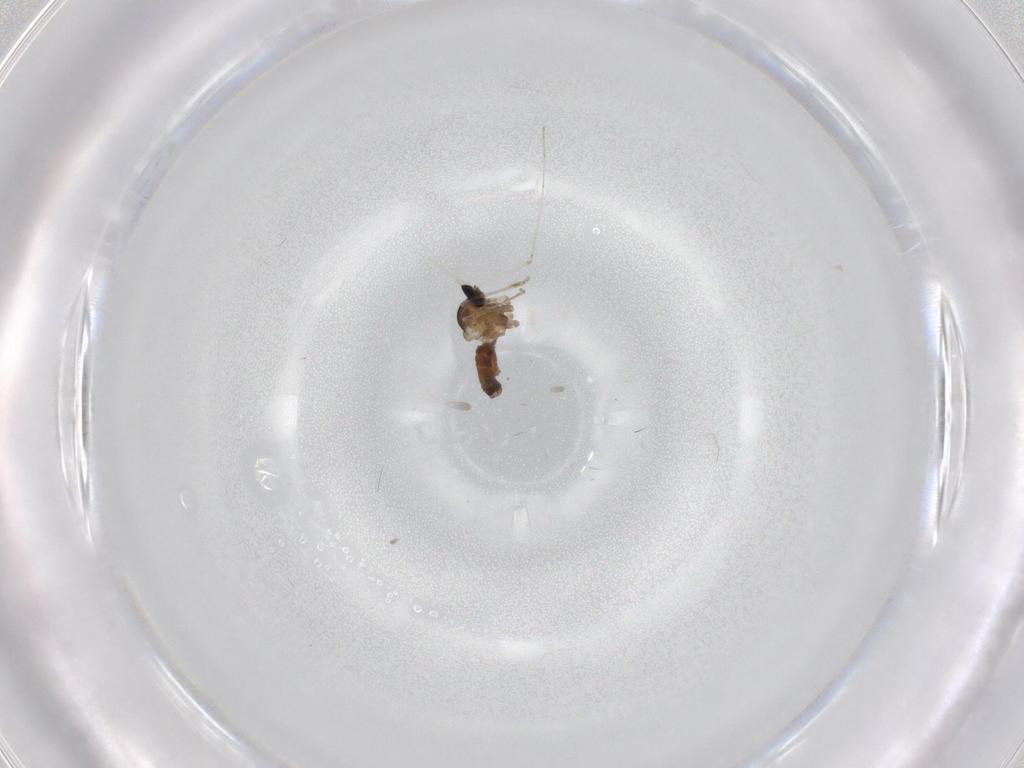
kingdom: Animalia
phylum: Arthropoda
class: Insecta
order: Diptera
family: Cecidomyiidae
